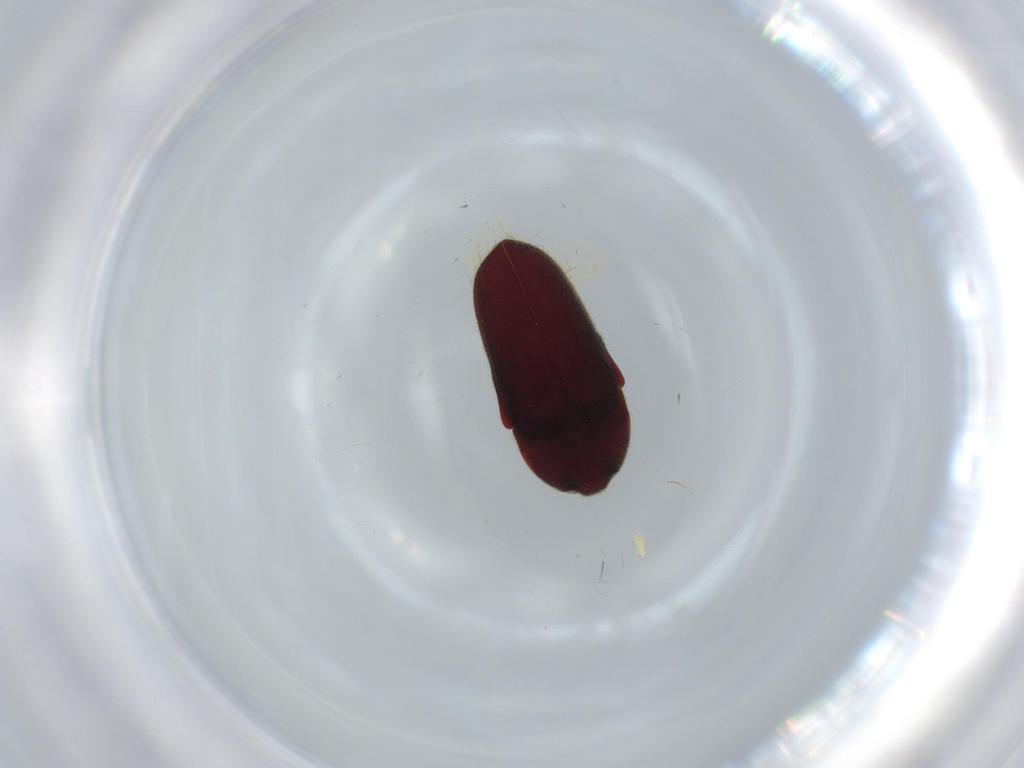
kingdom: Animalia
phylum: Arthropoda
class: Insecta
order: Coleoptera
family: Throscidae
